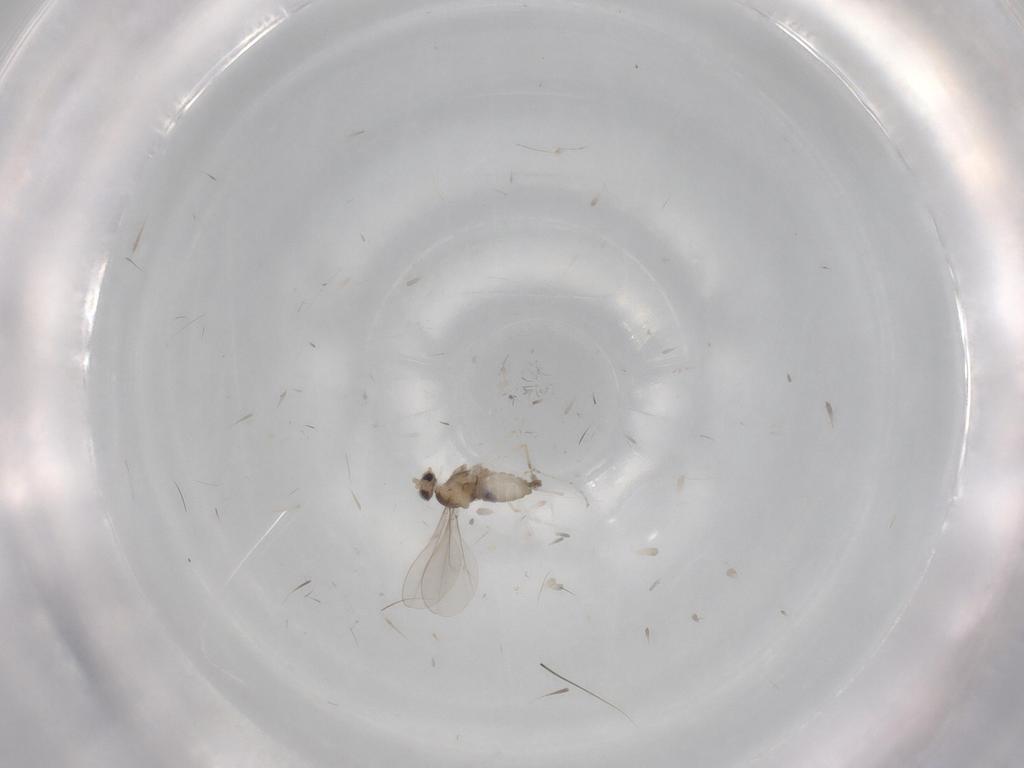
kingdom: Animalia
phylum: Arthropoda
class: Insecta
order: Diptera
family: Cecidomyiidae
